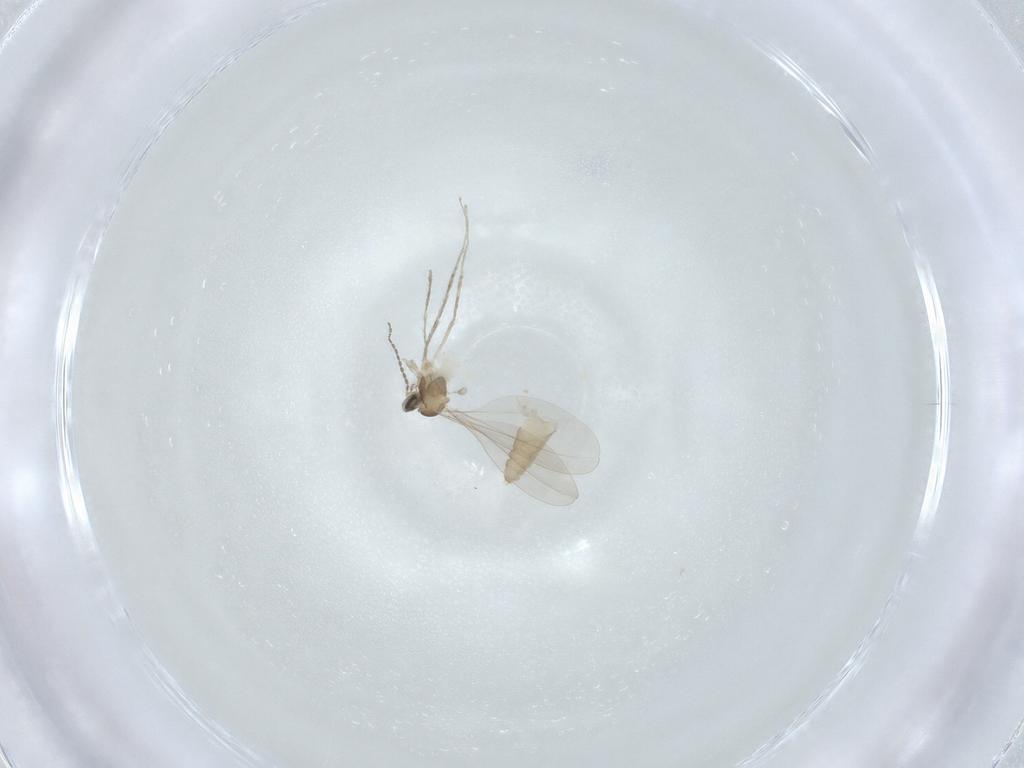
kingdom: Animalia
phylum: Arthropoda
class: Insecta
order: Diptera
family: Cecidomyiidae
